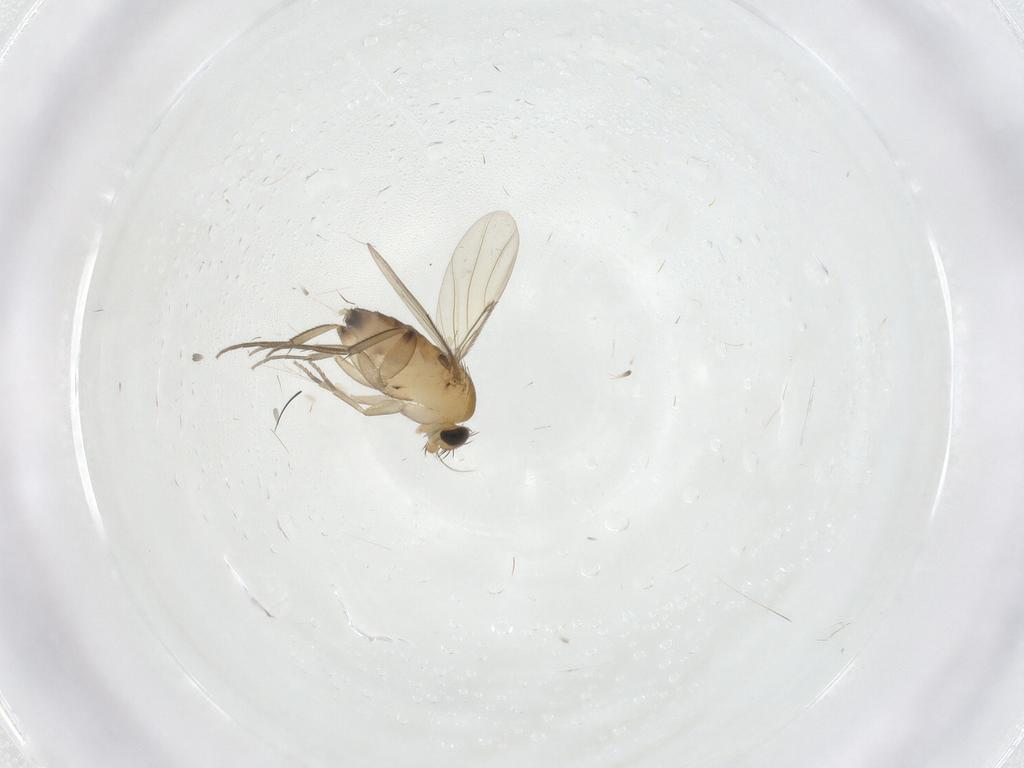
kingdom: Animalia
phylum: Arthropoda
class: Insecta
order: Diptera
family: Phoridae
